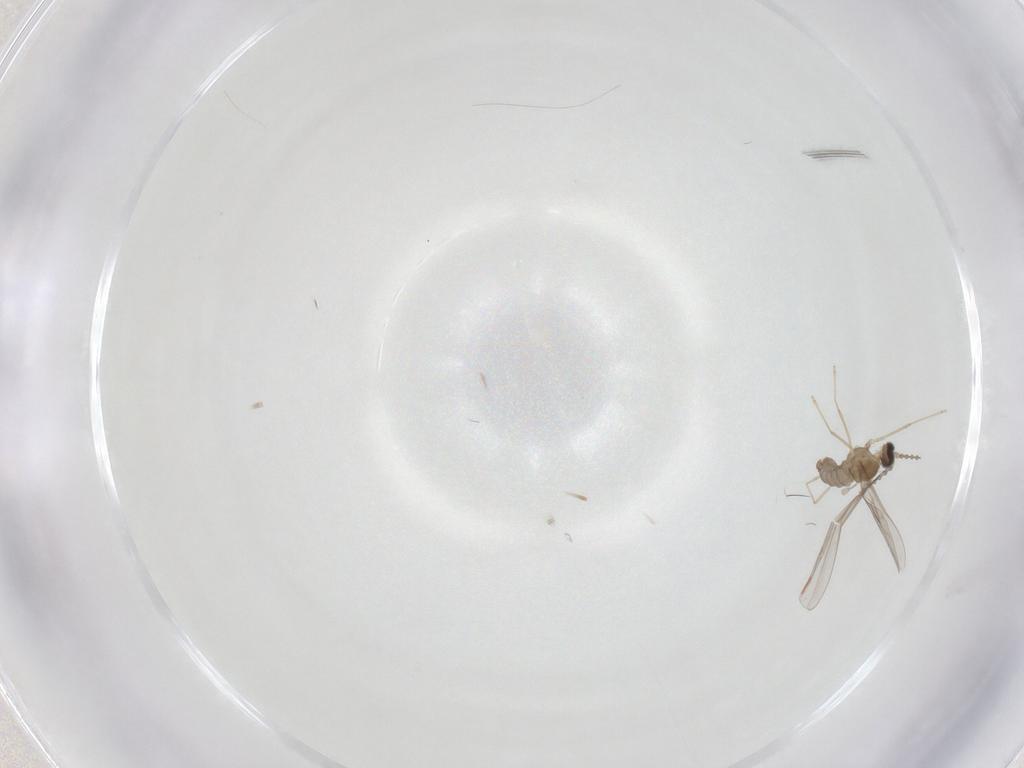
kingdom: Animalia
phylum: Arthropoda
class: Insecta
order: Diptera
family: Cecidomyiidae
